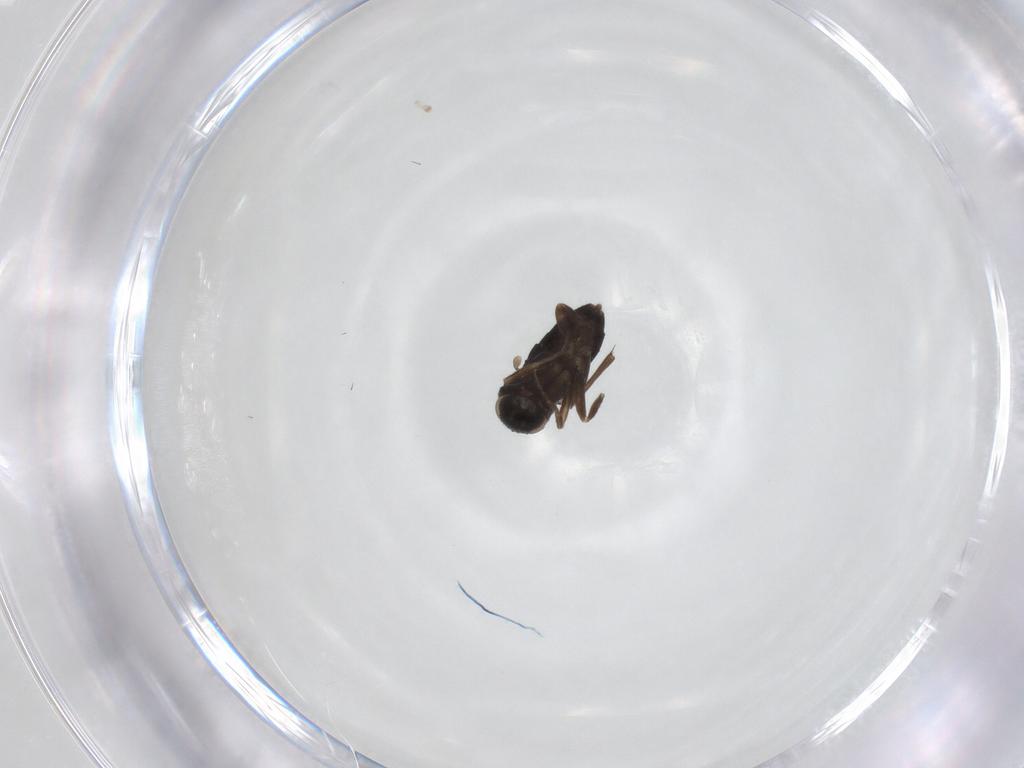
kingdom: Animalia
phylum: Arthropoda
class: Insecta
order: Diptera
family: Phoridae
